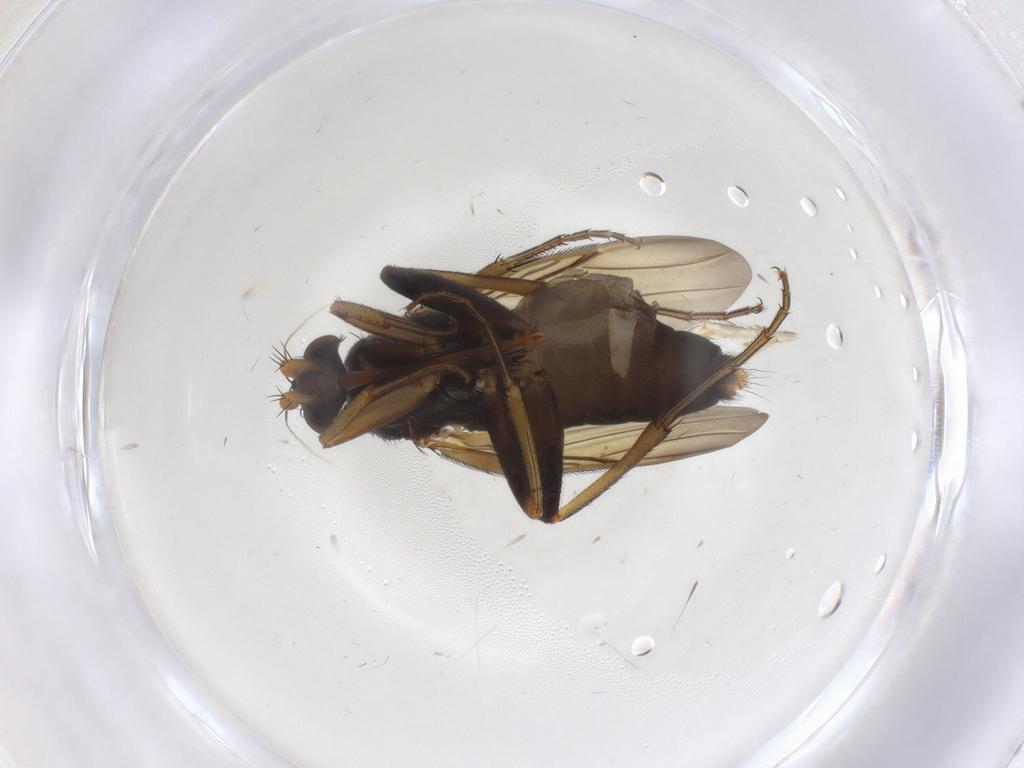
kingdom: Animalia
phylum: Arthropoda
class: Insecta
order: Diptera
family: Phoridae
